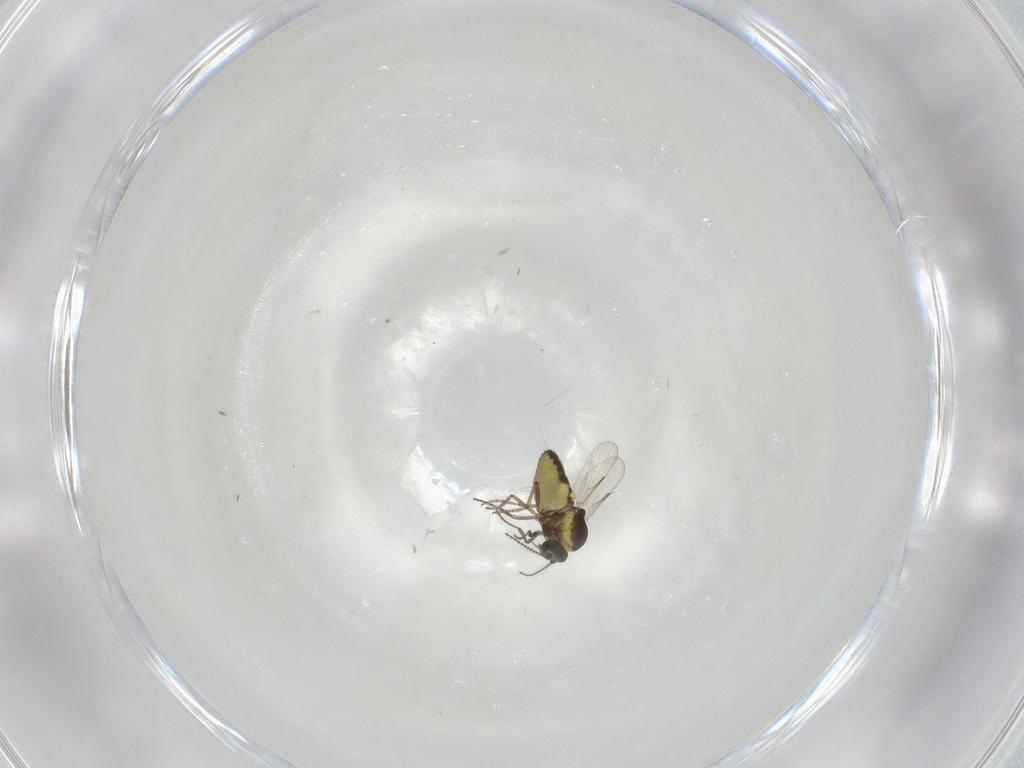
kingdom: Animalia
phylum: Arthropoda
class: Insecta
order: Diptera
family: Ceratopogonidae
